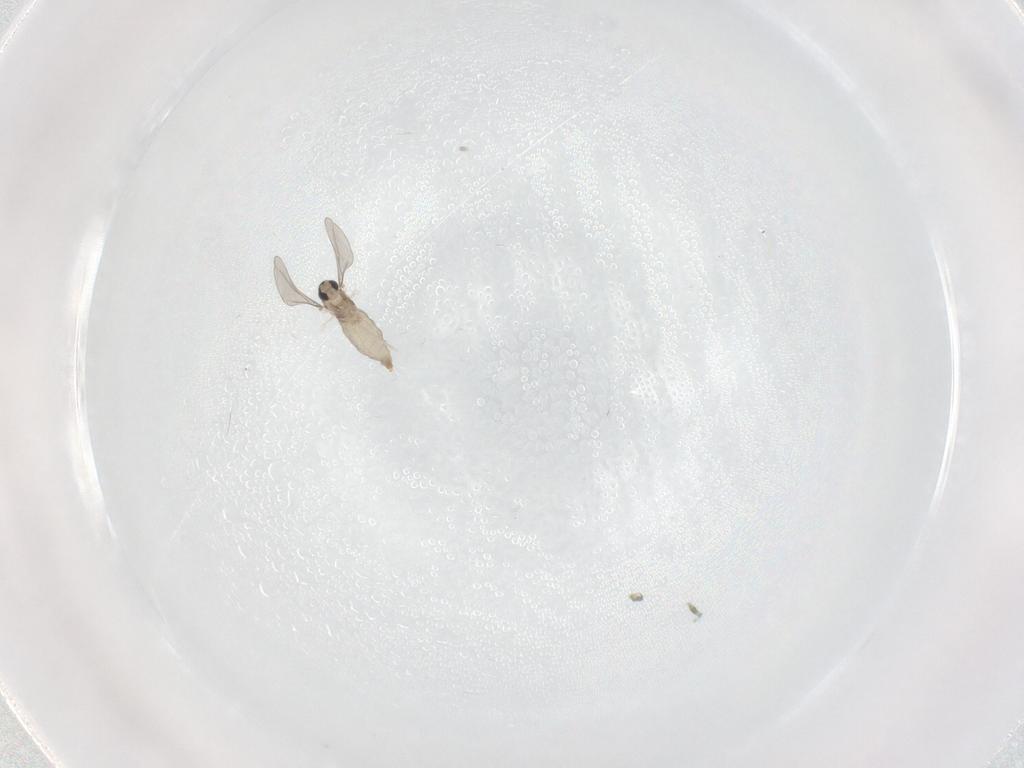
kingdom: Animalia
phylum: Arthropoda
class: Insecta
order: Diptera
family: Cecidomyiidae
